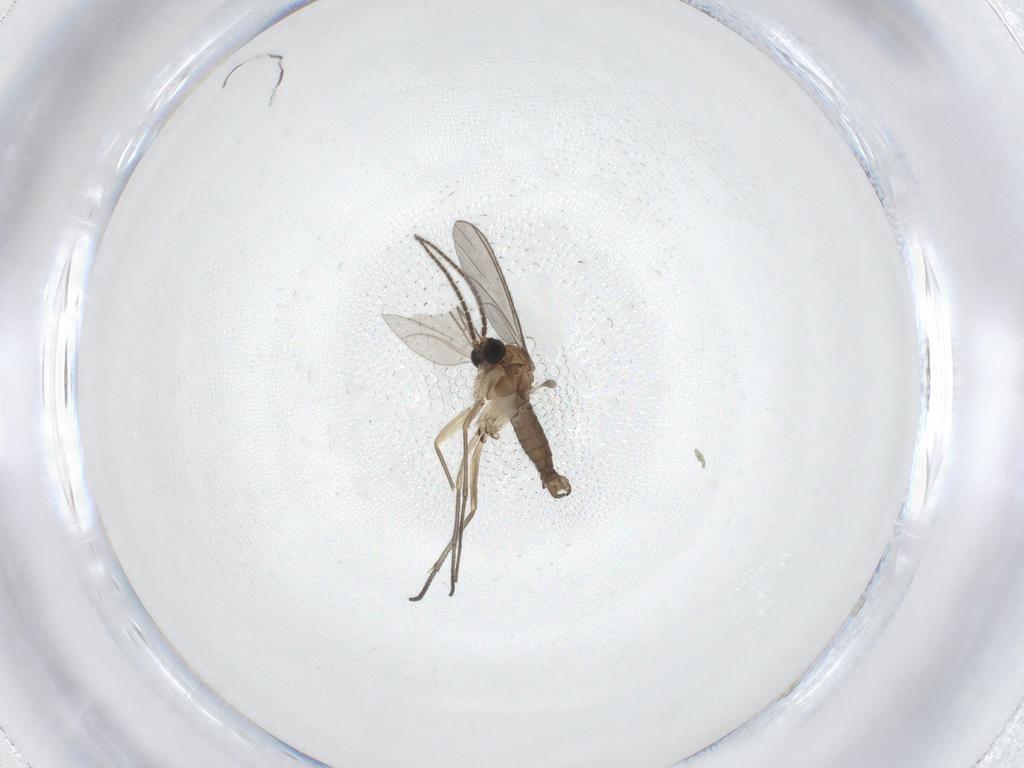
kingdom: Animalia
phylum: Arthropoda
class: Insecta
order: Diptera
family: Sciaridae
